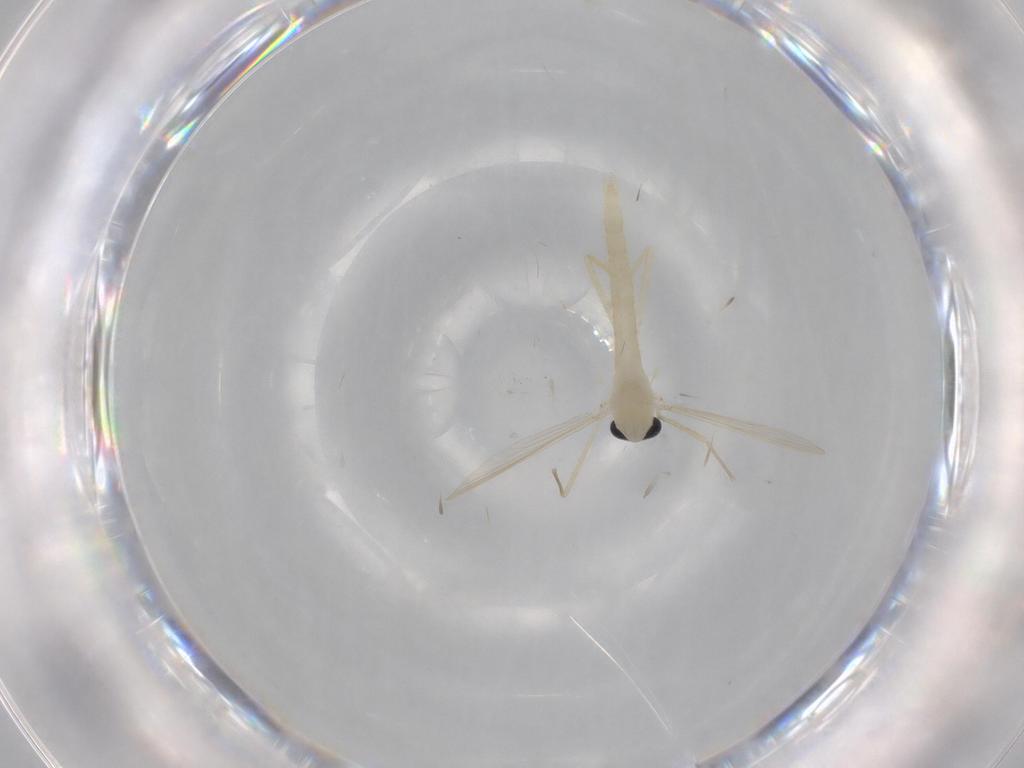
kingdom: Animalia
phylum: Arthropoda
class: Insecta
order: Diptera
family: Chironomidae
